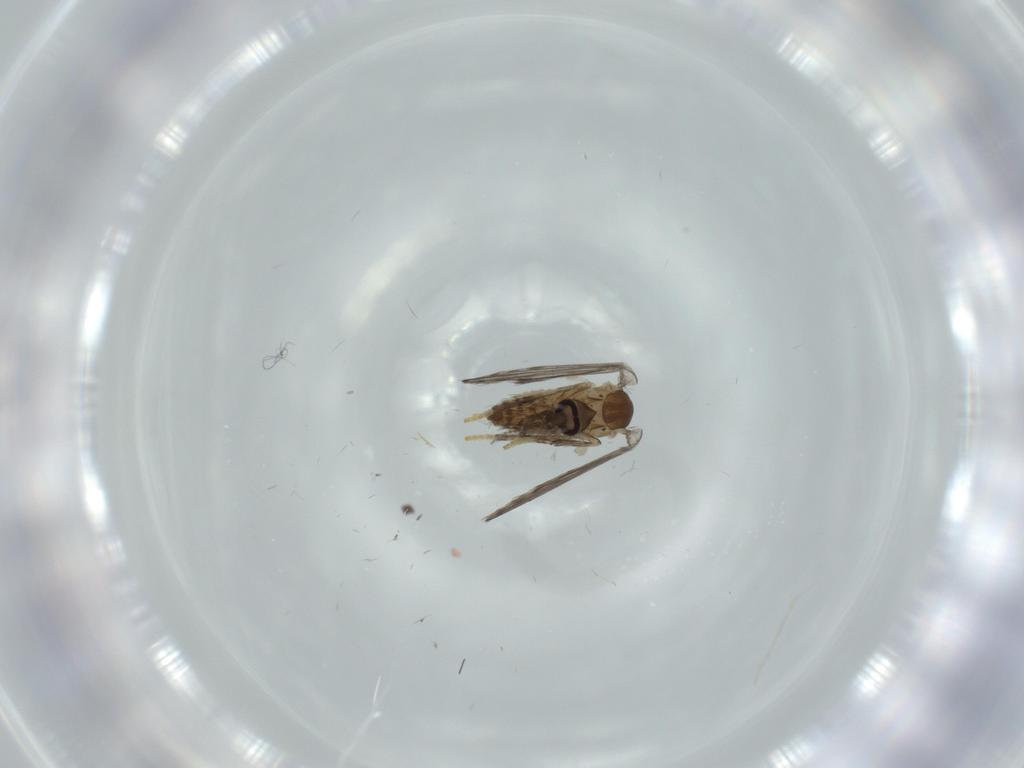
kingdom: Animalia
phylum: Arthropoda
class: Insecta
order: Diptera
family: Psychodidae
